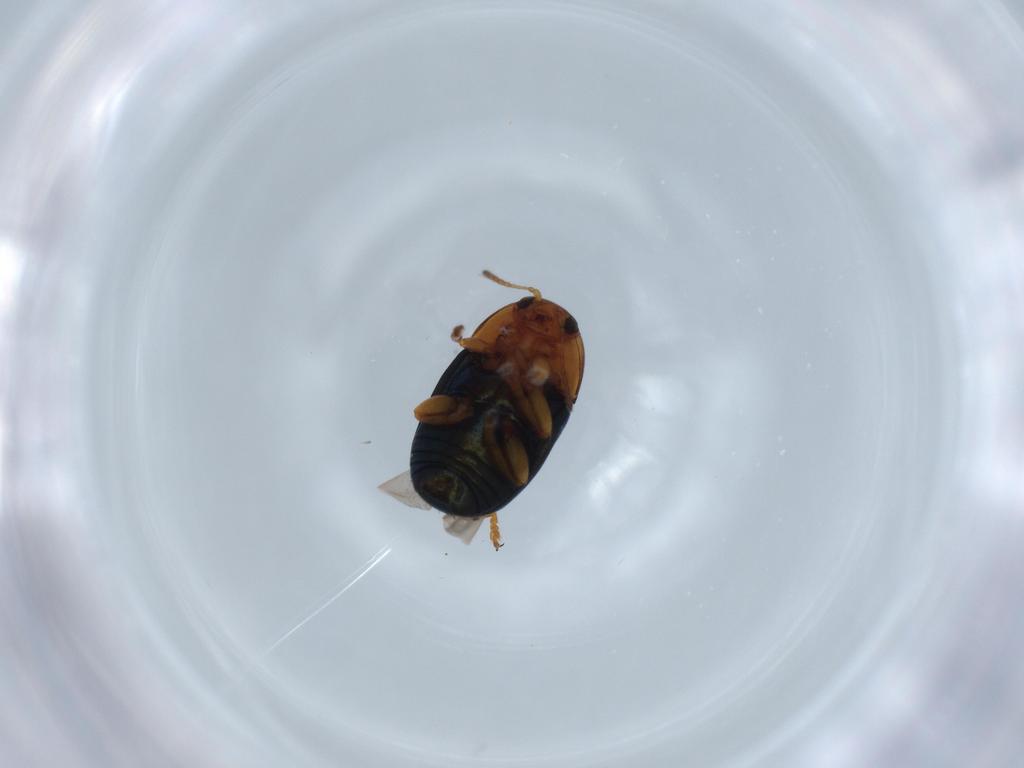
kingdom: Animalia
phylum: Arthropoda
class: Insecta
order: Coleoptera
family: Chrysomelidae
